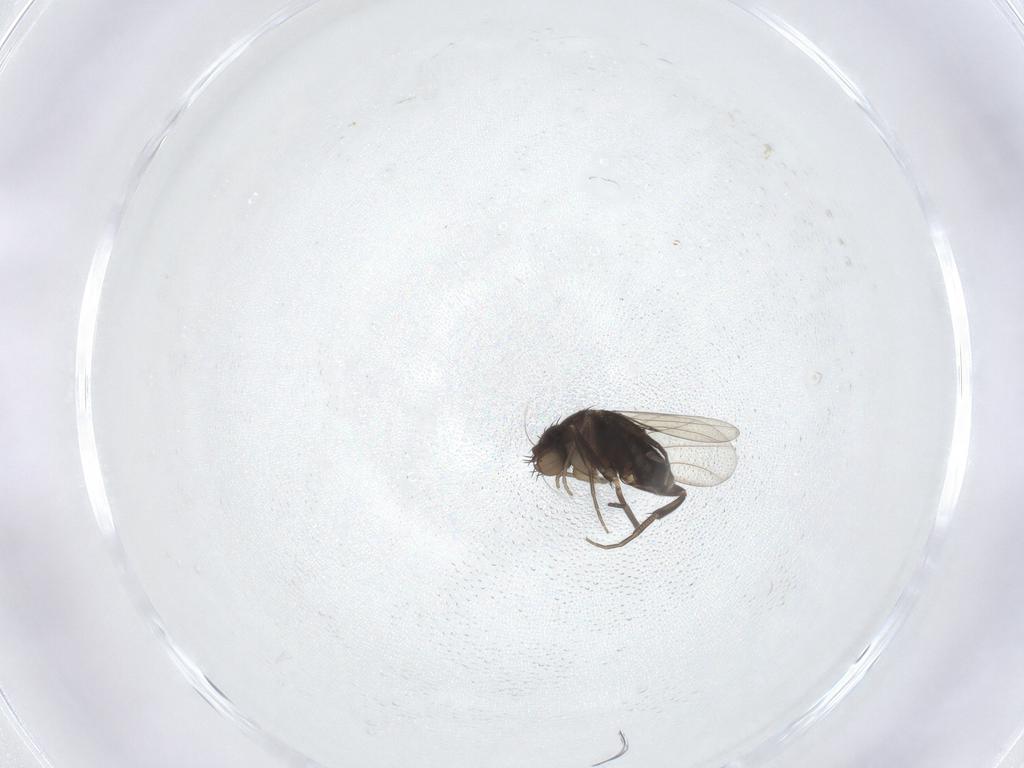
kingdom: Animalia
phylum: Arthropoda
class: Insecta
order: Diptera
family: Phoridae
